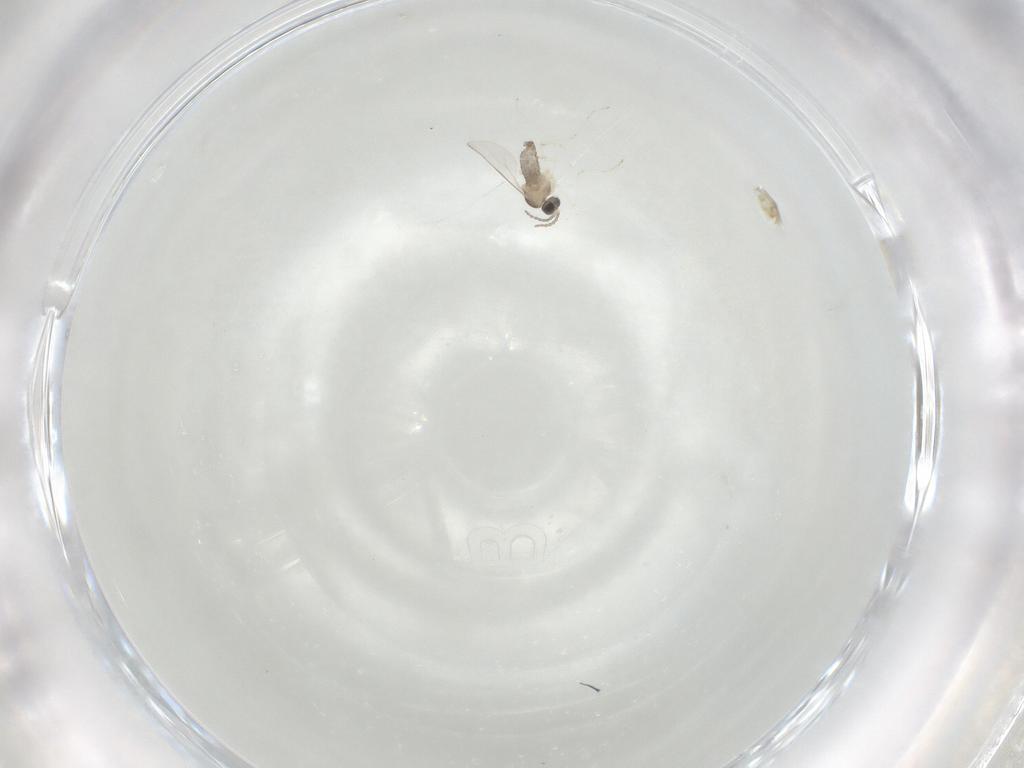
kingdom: Animalia
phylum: Arthropoda
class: Insecta
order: Diptera
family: Cecidomyiidae
